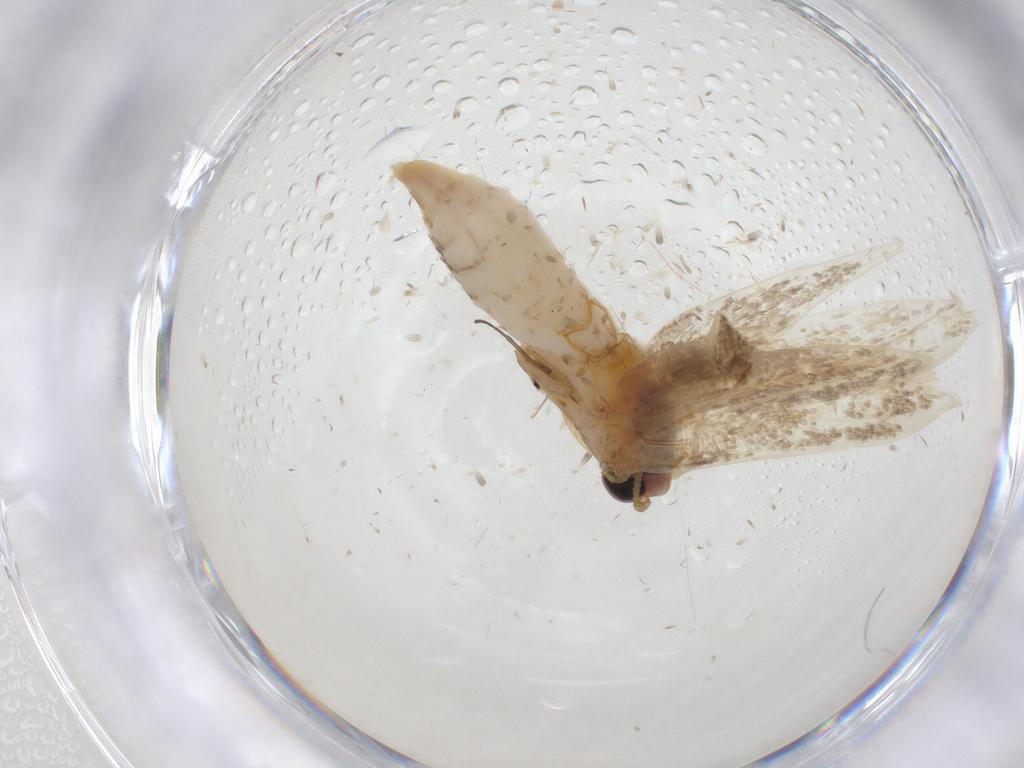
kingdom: Animalia
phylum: Arthropoda
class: Insecta
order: Lepidoptera
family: Cosmopterigidae
